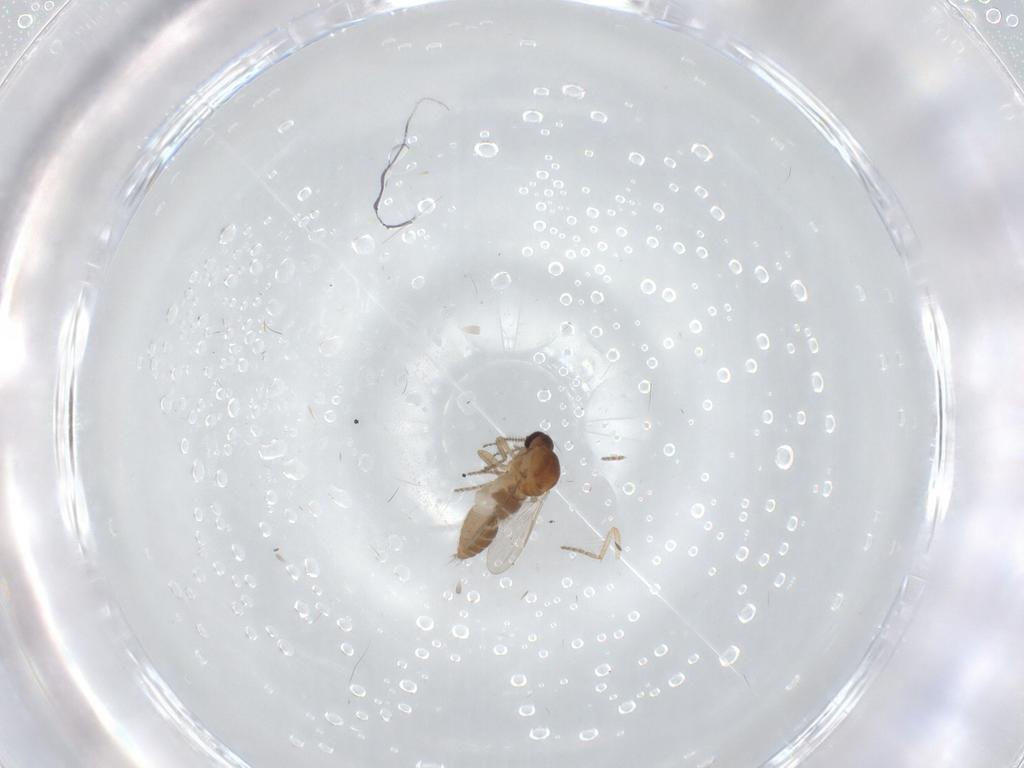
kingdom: Animalia
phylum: Arthropoda
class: Insecta
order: Diptera
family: Ceratopogonidae
